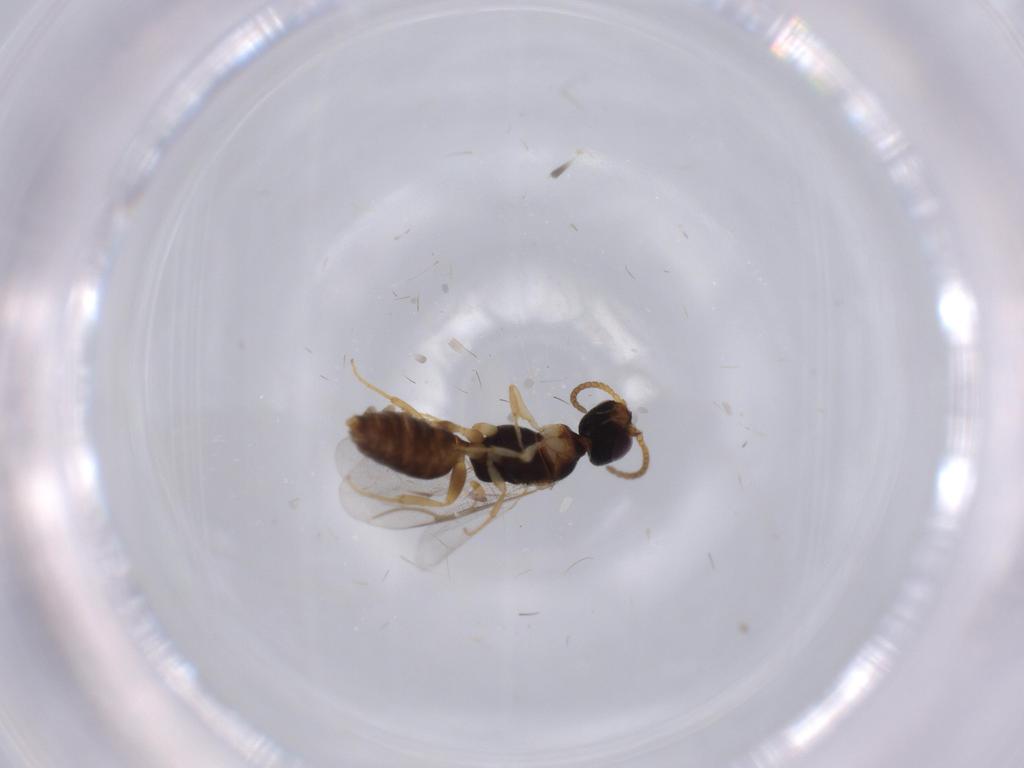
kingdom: Animalia
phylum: Arthropoda
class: Insecta
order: Hymenoptera
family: Bethylidae
